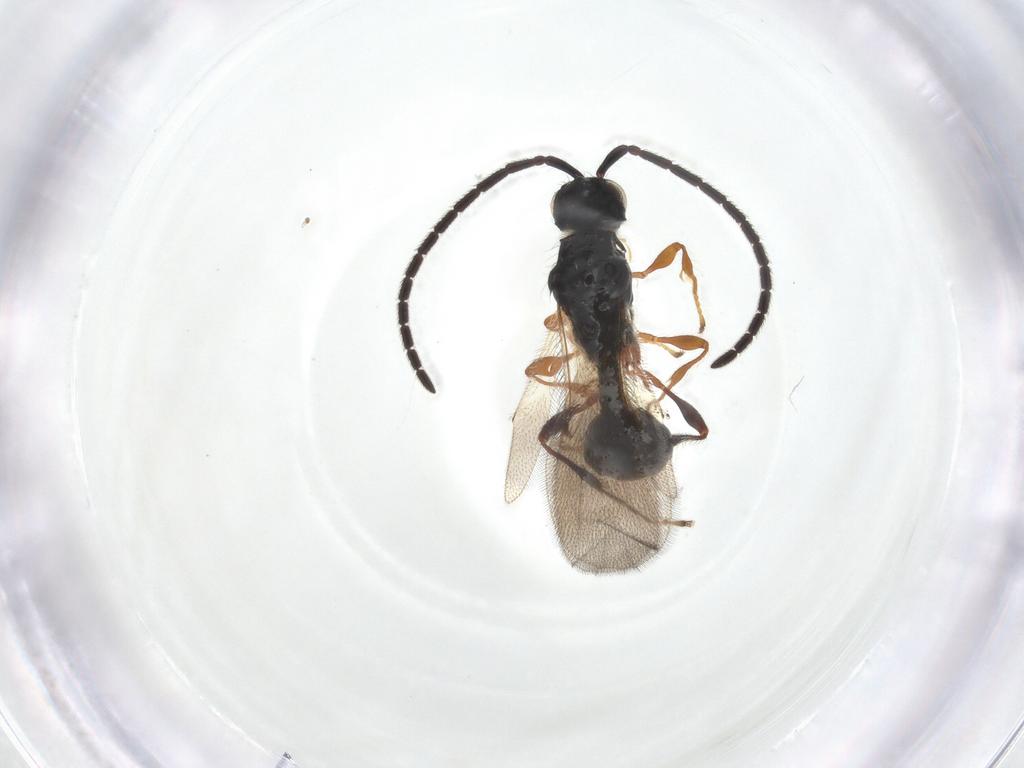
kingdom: Animalia
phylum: Arthropoda
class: Insecta
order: Hymenoptera
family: Diapriidae
